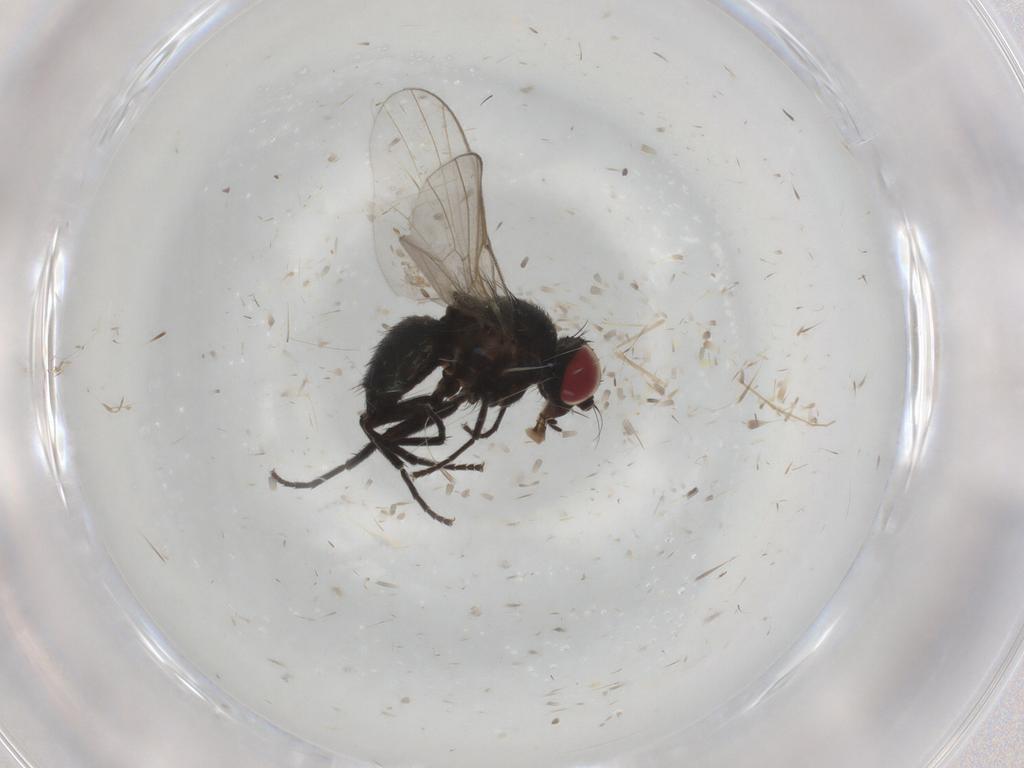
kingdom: Animalia
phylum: Arthropoda
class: Insecta
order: Diptera
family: Agromyzidae
